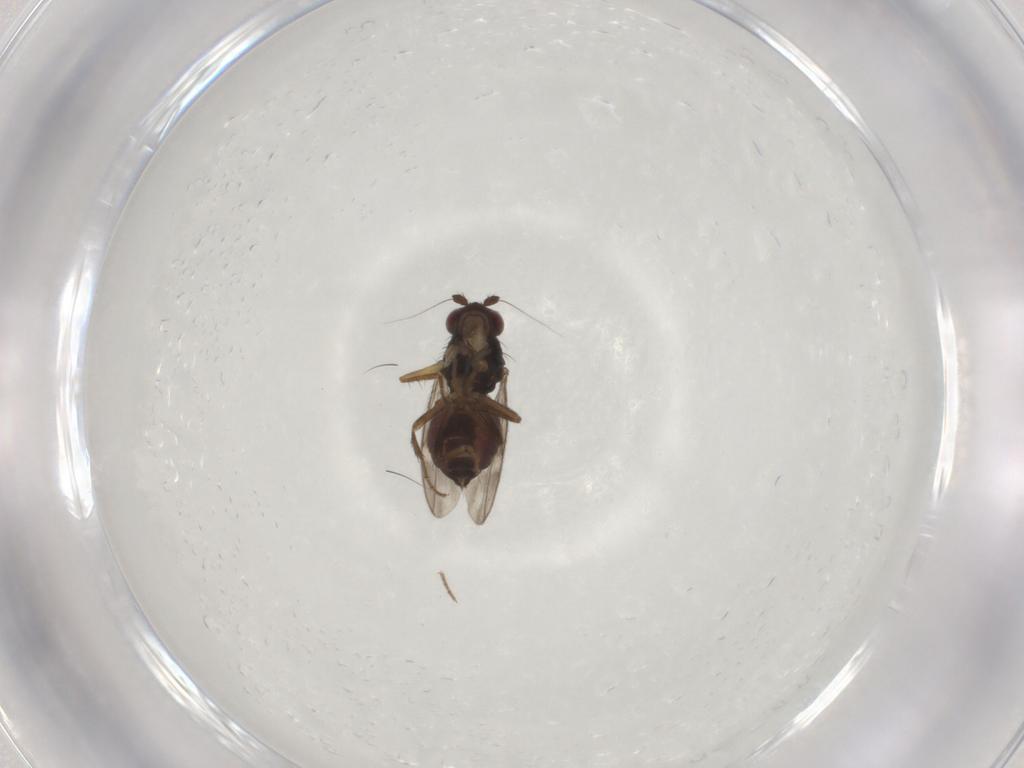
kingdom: Animalia
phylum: Arthropoda
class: Insecta
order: Diptera
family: Sphaeroceridae
